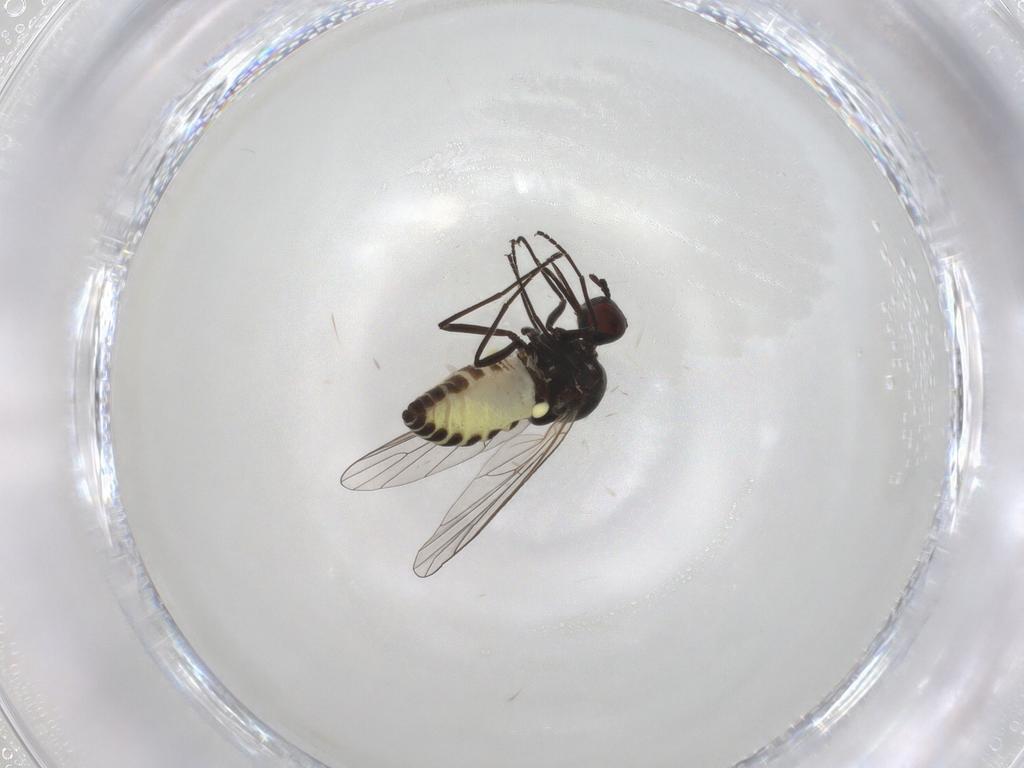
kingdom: Animalia
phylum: Arthropoda
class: Insecta
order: Diptera
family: Bombyliidae
